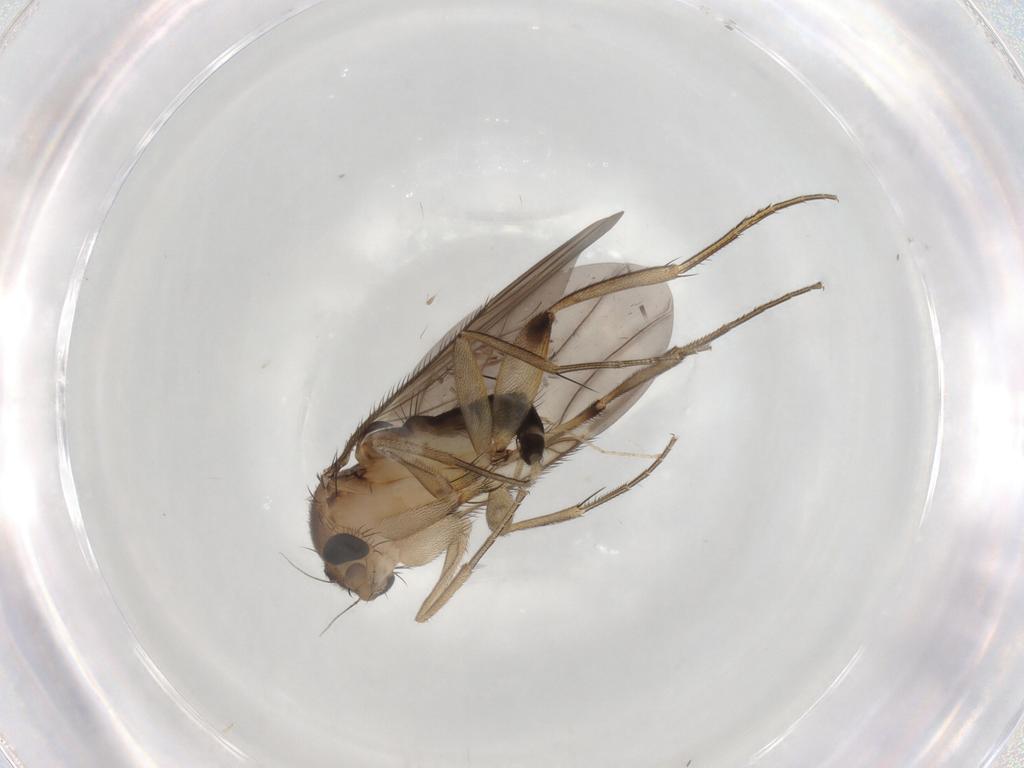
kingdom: Animalia
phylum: Arthropoda
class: Insecta
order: Diptera
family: Phoridae
